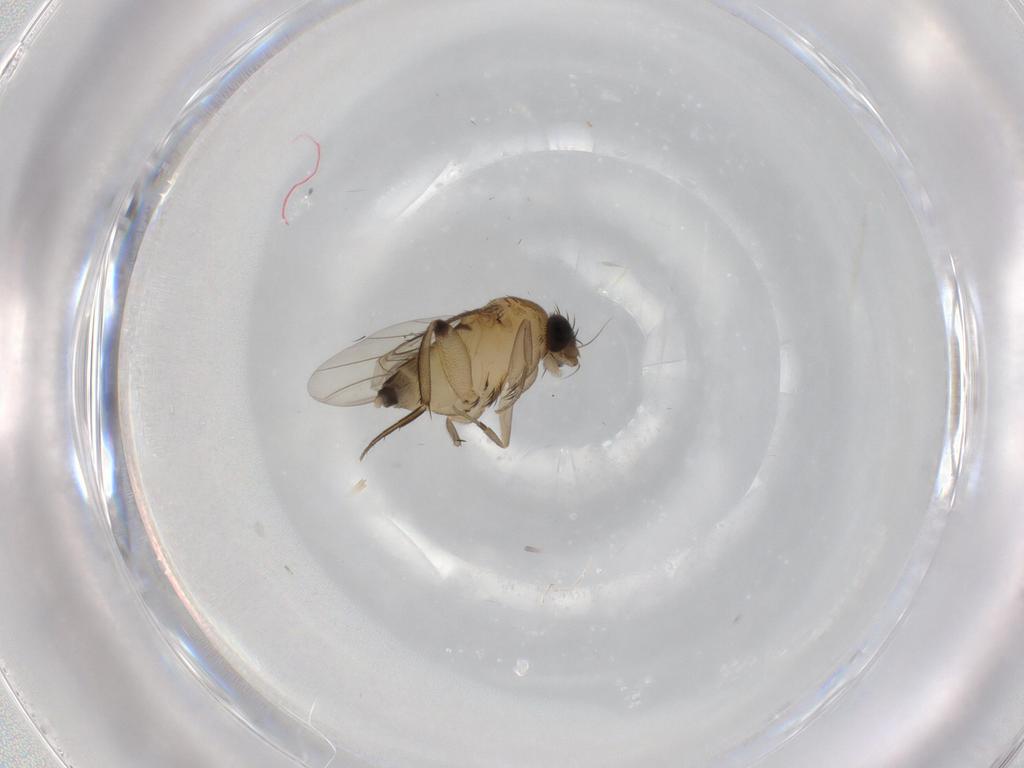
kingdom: Animalia
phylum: Arthropoda
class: Insecta
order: Diptera
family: Phoridae
